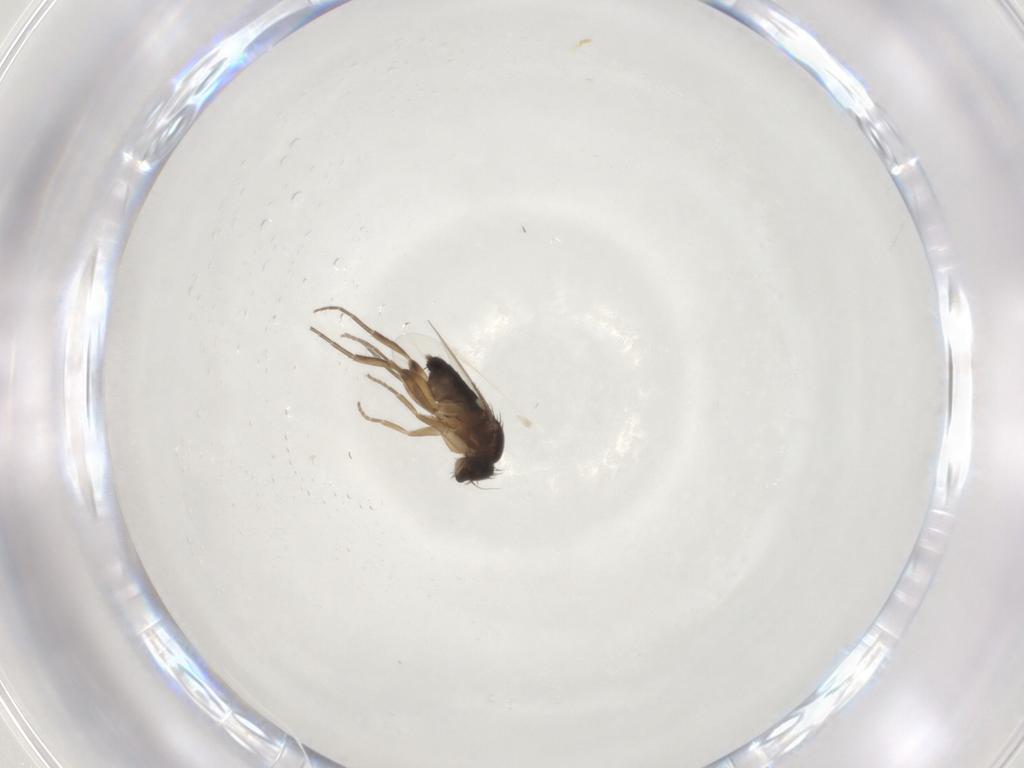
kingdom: Animalia
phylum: Arthropoda
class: Insecta
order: Diptera
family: Phoridae
